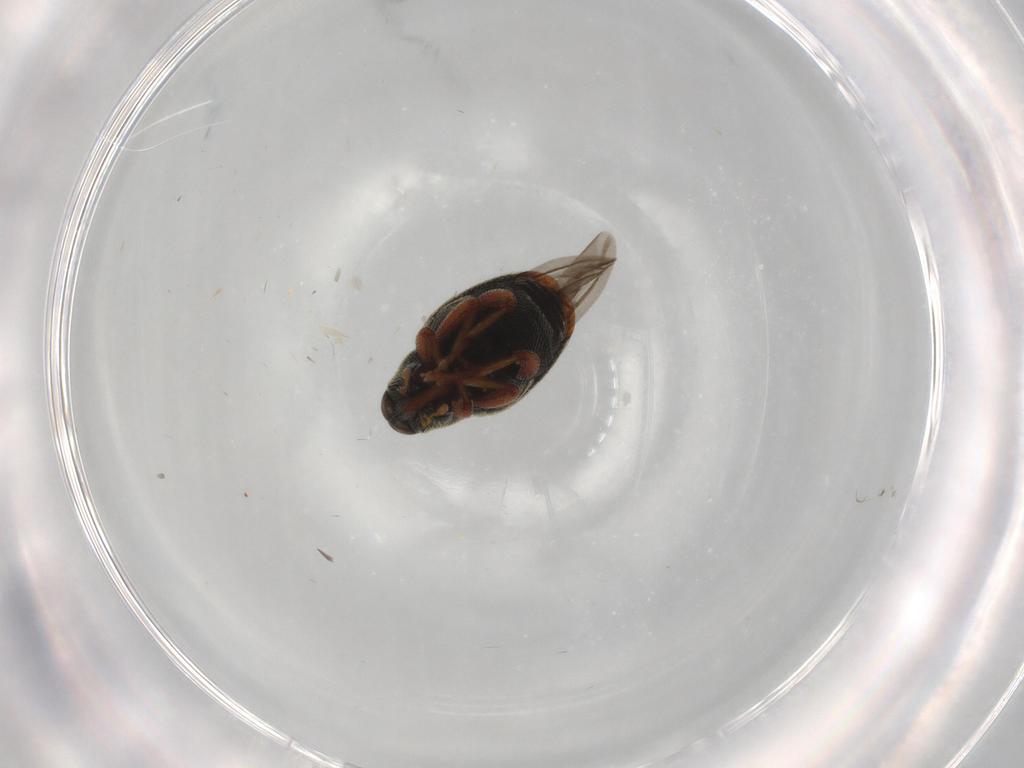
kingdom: Animalia
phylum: Arthropoda
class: Insecta
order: Coleoptera
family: Curculionidae
